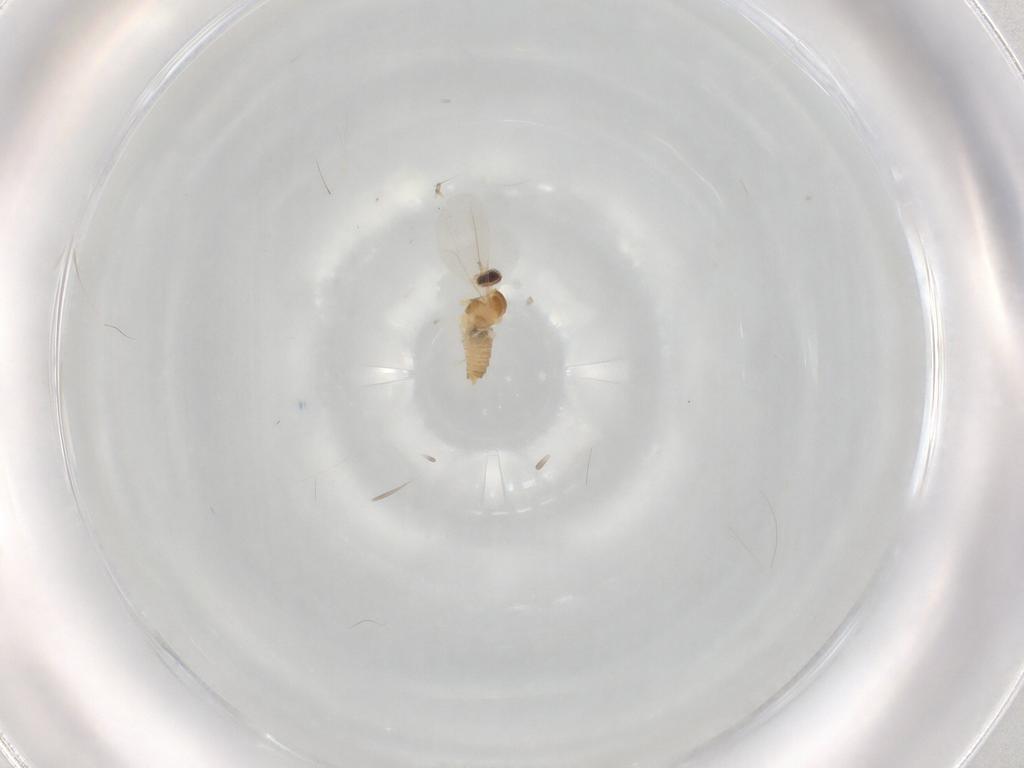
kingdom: Animalia
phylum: Arthropoda
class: Insecta
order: Diptera
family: Cecidomyiidae
